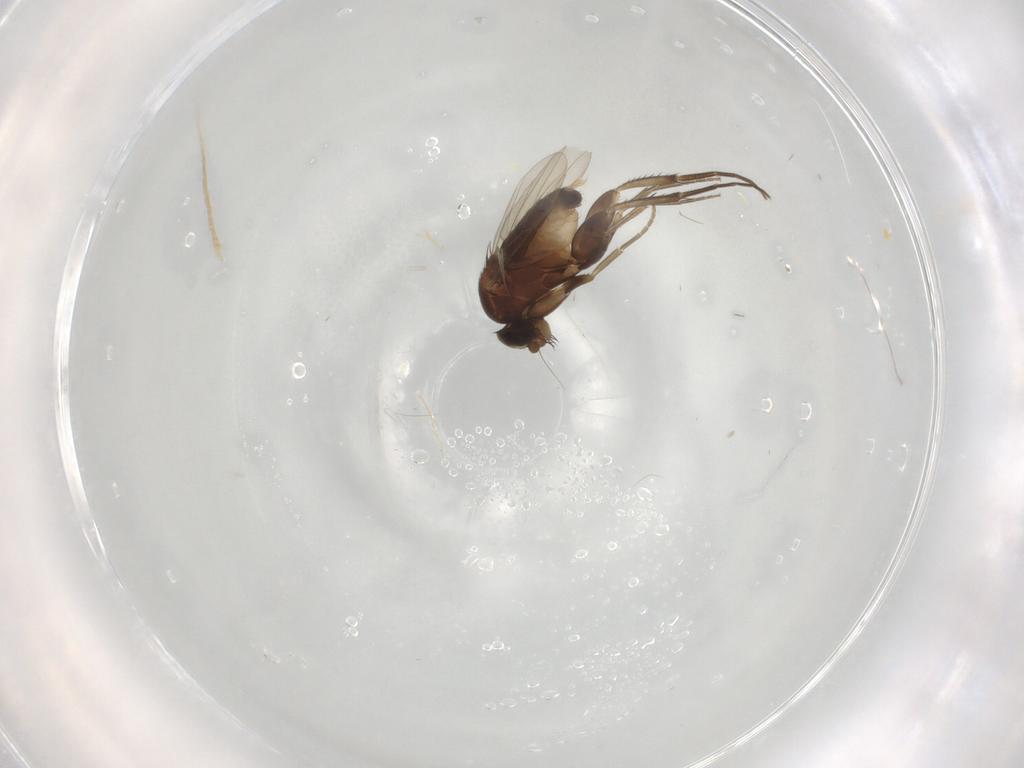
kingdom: Animalia
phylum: Arthropoda
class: Insecta
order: Diptera
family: Phoridae
